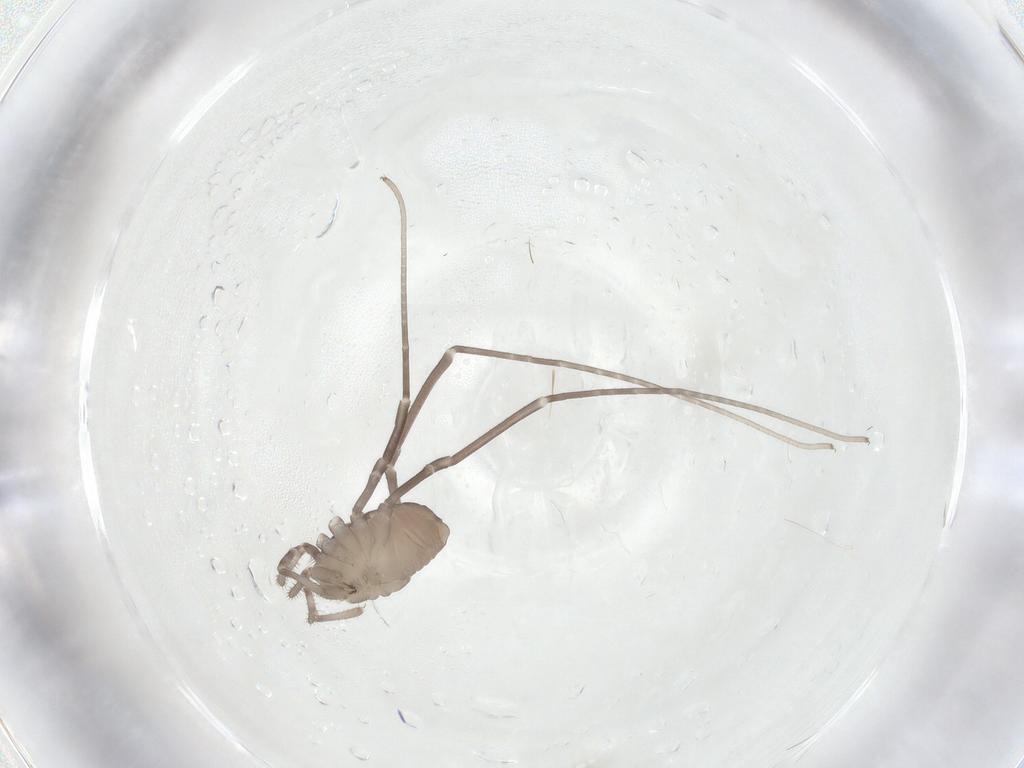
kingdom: Animalia
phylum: Arthropoda
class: Arachnida
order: Opiliones
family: Sclerosomatidae
